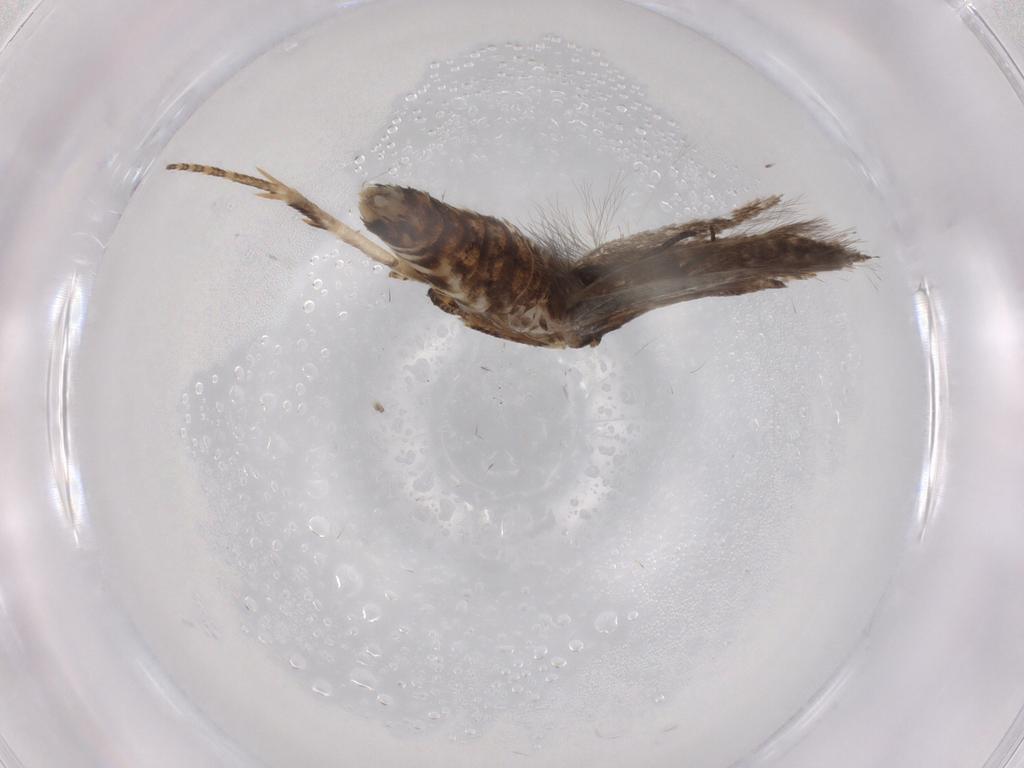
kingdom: Animalia
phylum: Arthropoda
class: Insecta
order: Lepidoptera
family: Momphidae
